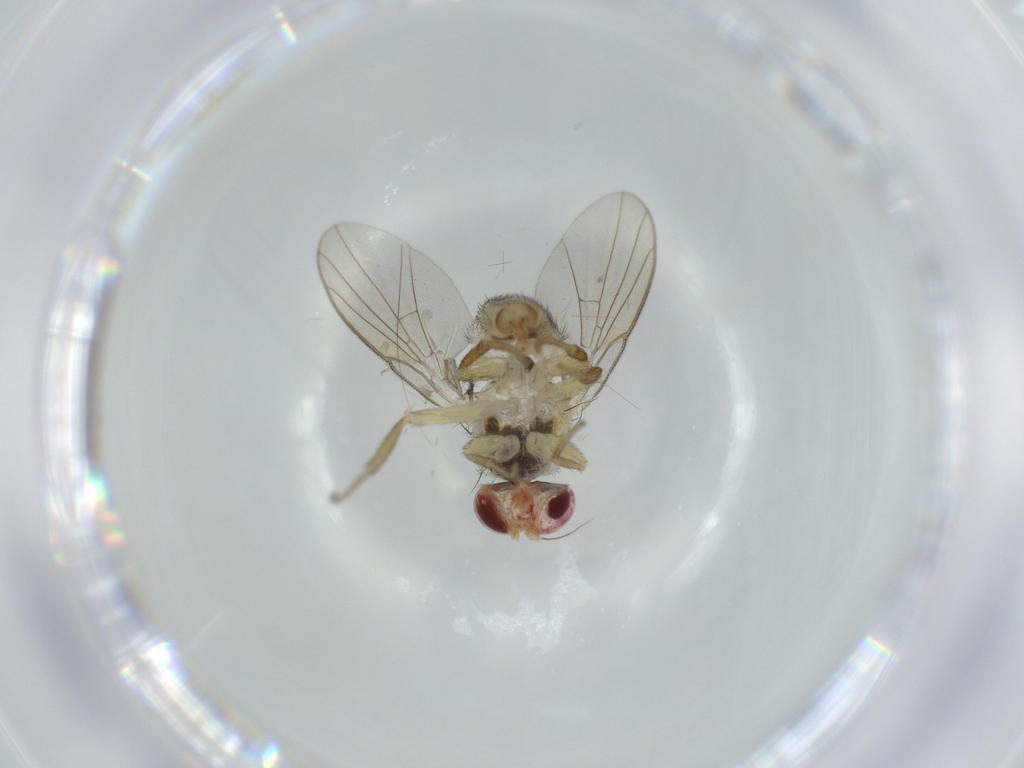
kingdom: Animalia
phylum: Arthropoda
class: Insecta
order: Diptera
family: Agromyzidae
